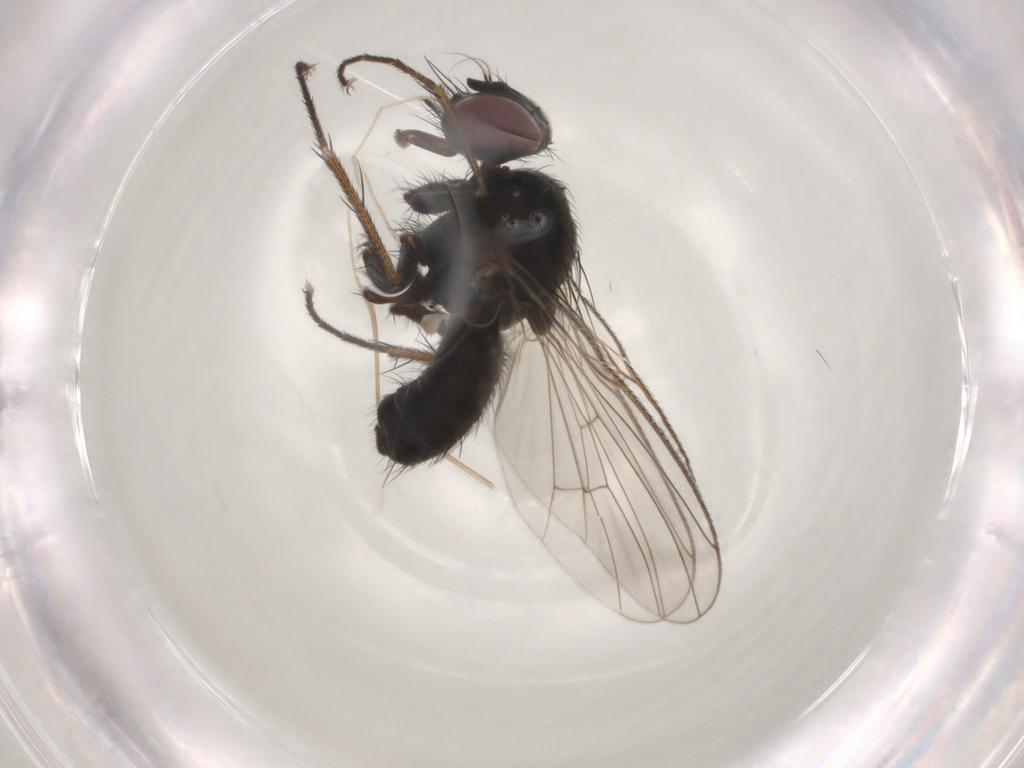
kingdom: Animalia
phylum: Arthropoda
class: Insecta
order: Diptera
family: Muscidae
